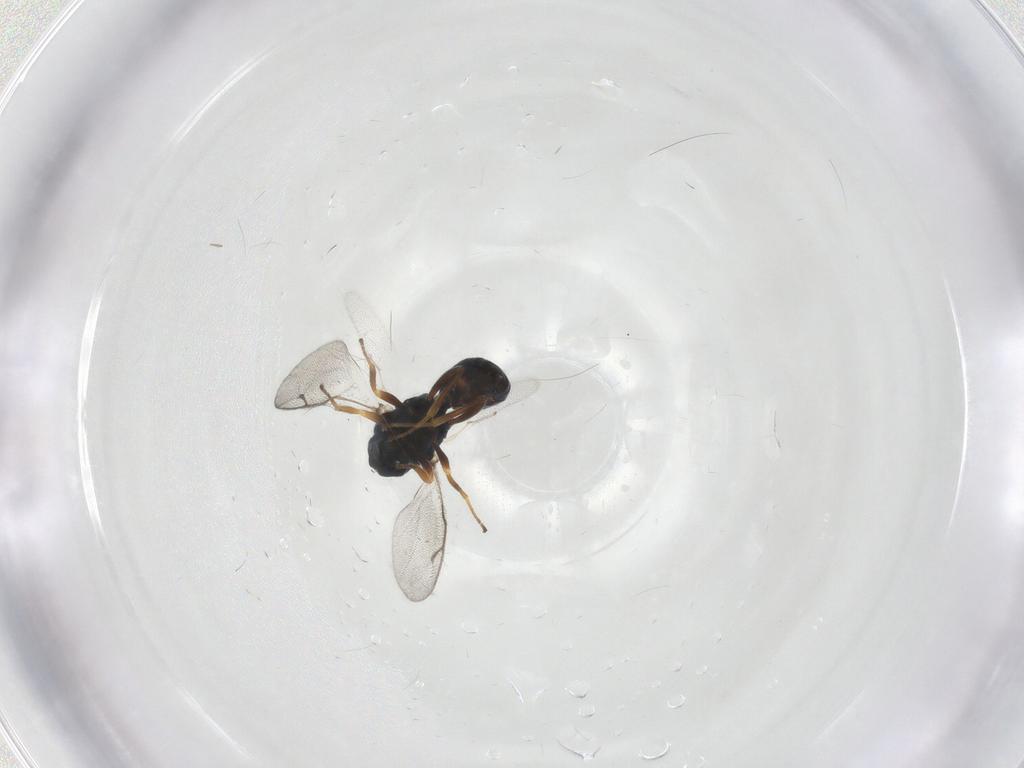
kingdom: Animalia
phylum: Arthropoda
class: Insecta
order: Hymenoptera
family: Pteromalidae
